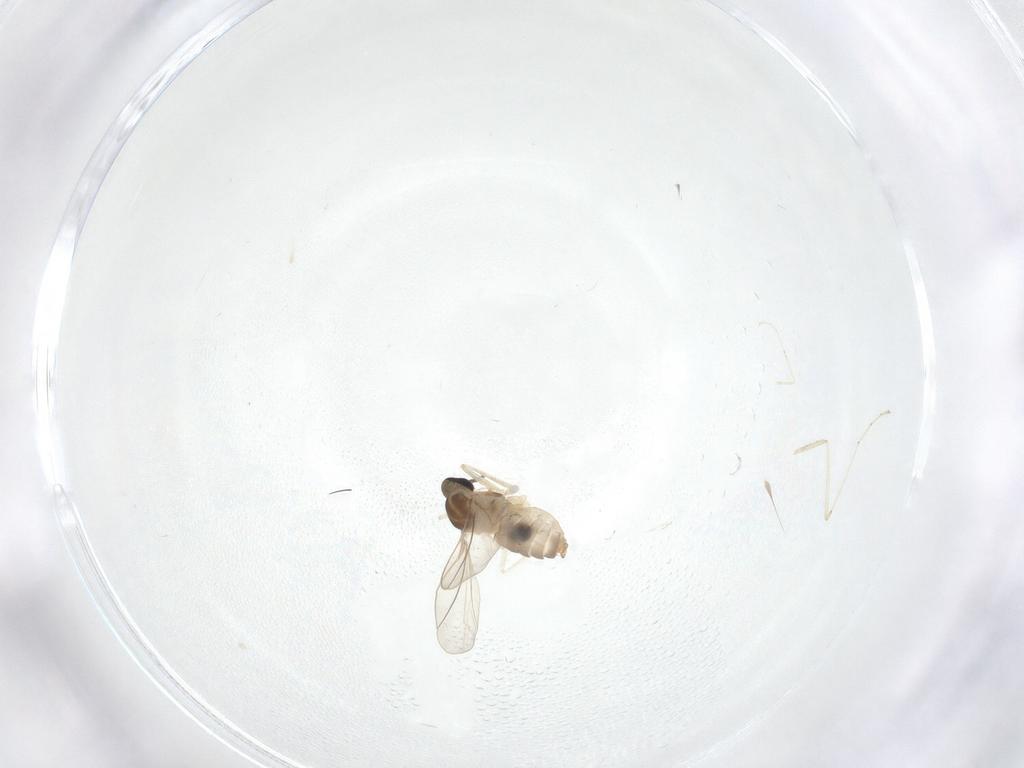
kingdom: Animalia
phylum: Arthropoda
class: Insecta
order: Diptera
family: Cecidomyiidae
